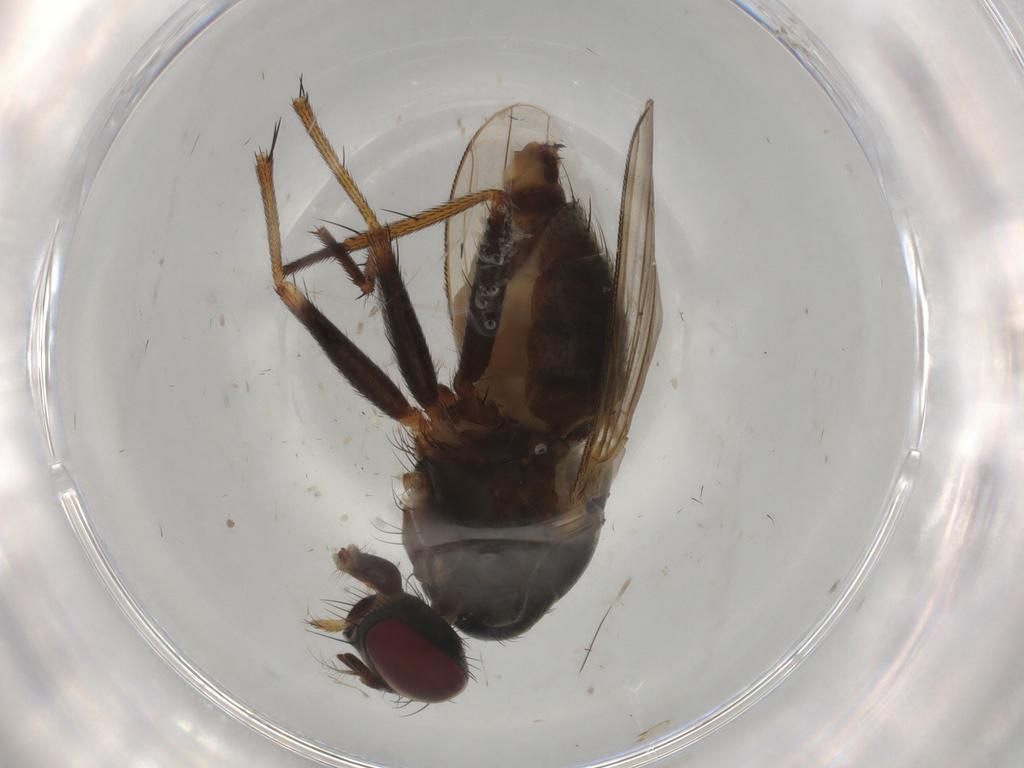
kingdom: Animalia
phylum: Arthropoda
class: Insecta
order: Diptera
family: Muscidae
